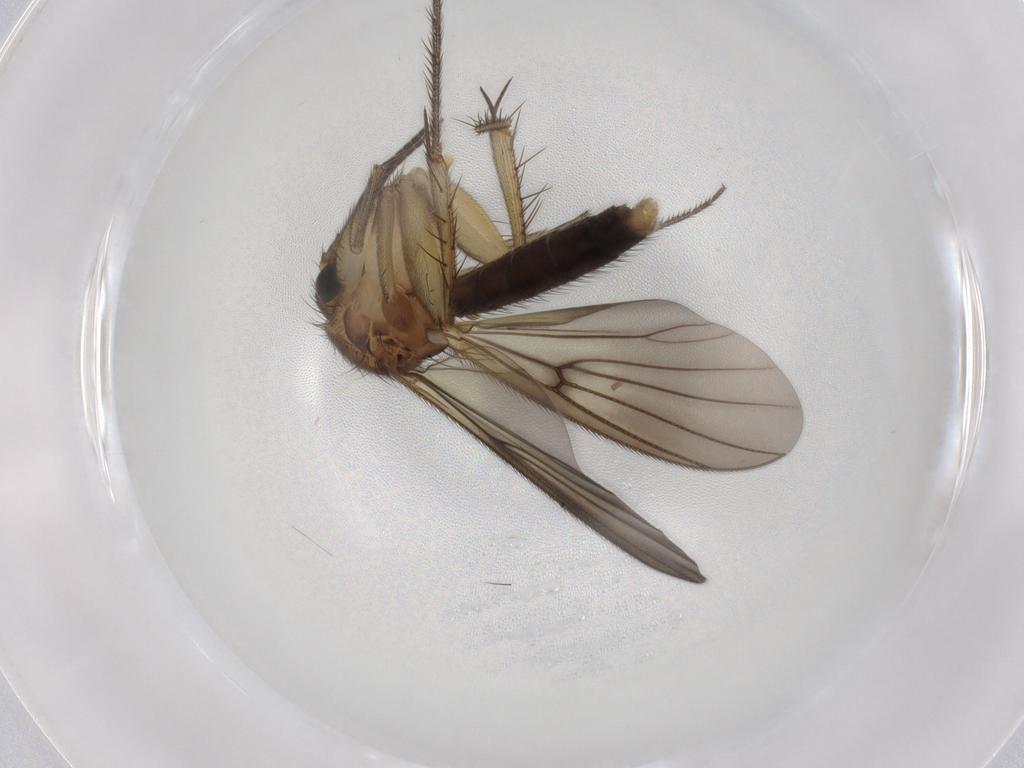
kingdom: Animalia
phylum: Arthropoda
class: Insecta
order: Diptera
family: Mycetophilidae
